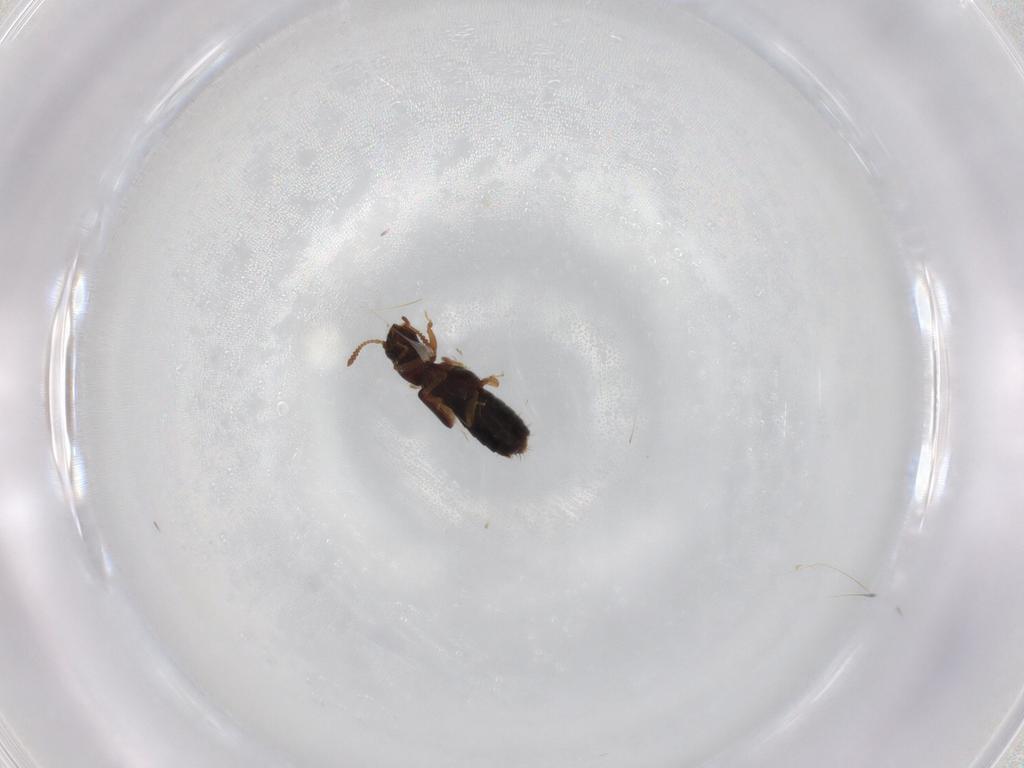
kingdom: Animalia
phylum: Arthropoda
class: Insecta
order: Coleoptera
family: Staphylinidae
